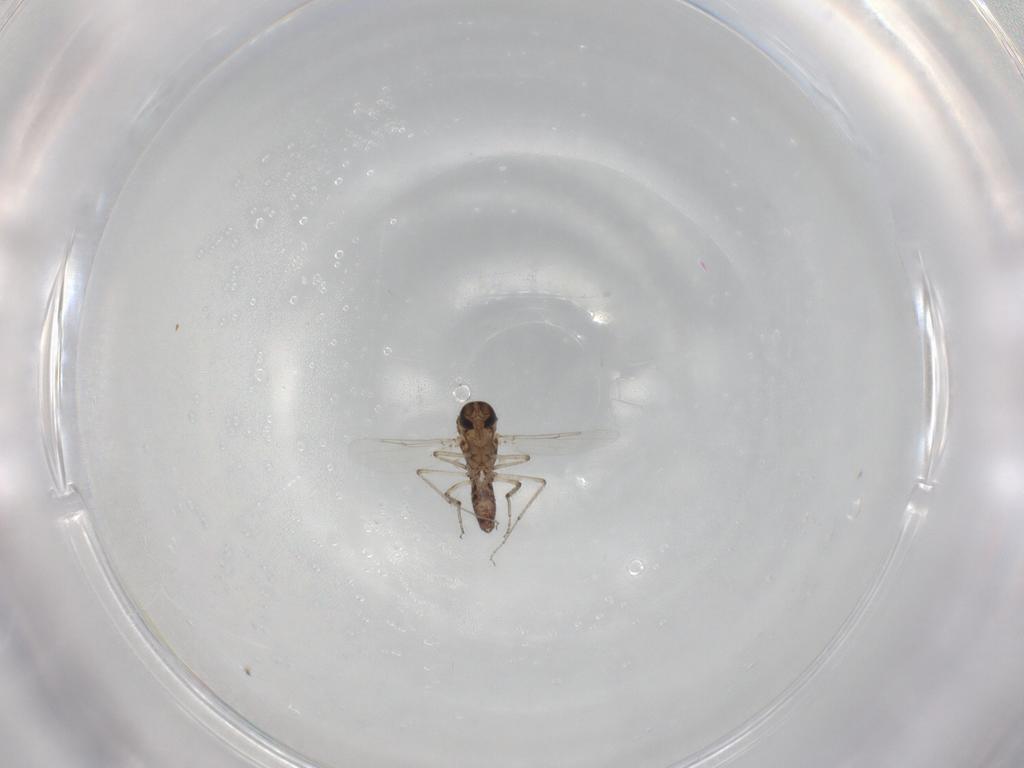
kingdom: Animalia
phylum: Arthropoda
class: Insecta
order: Diptera
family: Ceratopogonidae
